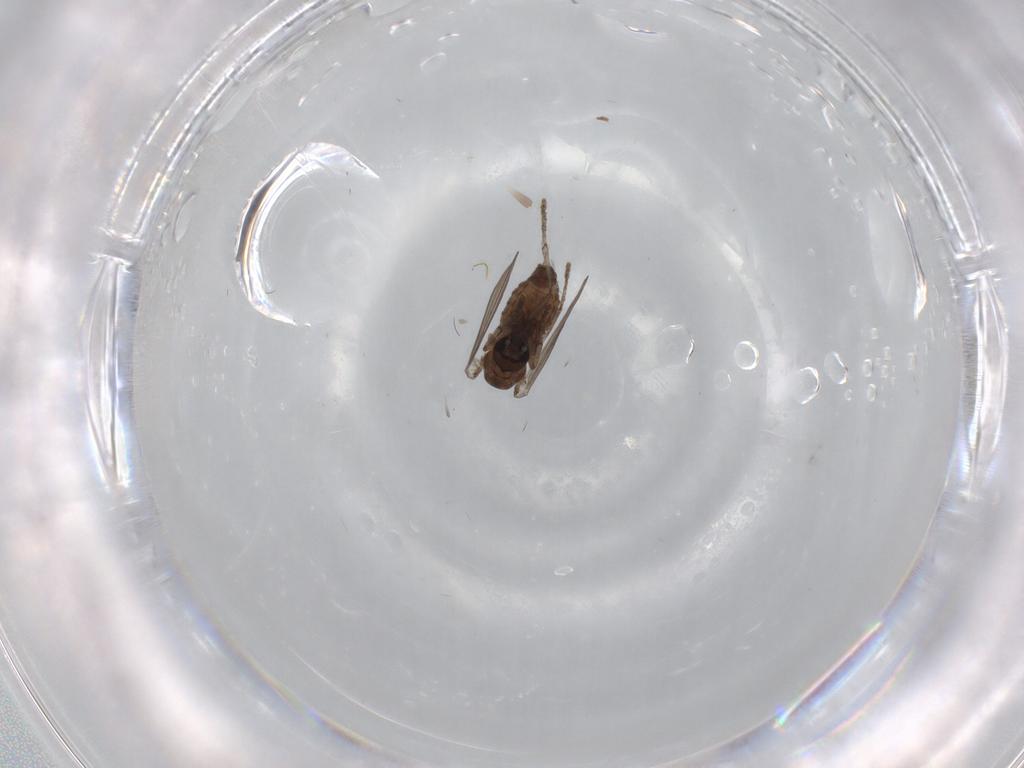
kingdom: Animalia
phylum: Arthropoda
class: Insecta
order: Diptera
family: Psychodidae
